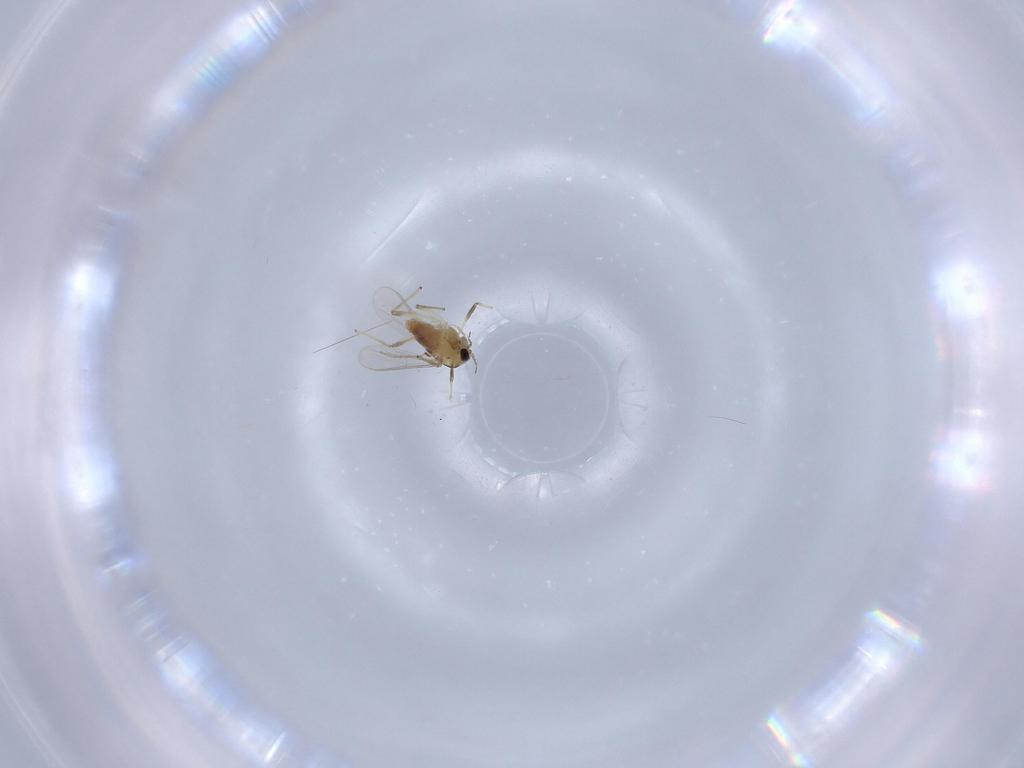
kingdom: Animalia
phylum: Arthropoda
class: Insecta
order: Diptera
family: Chironomidae
